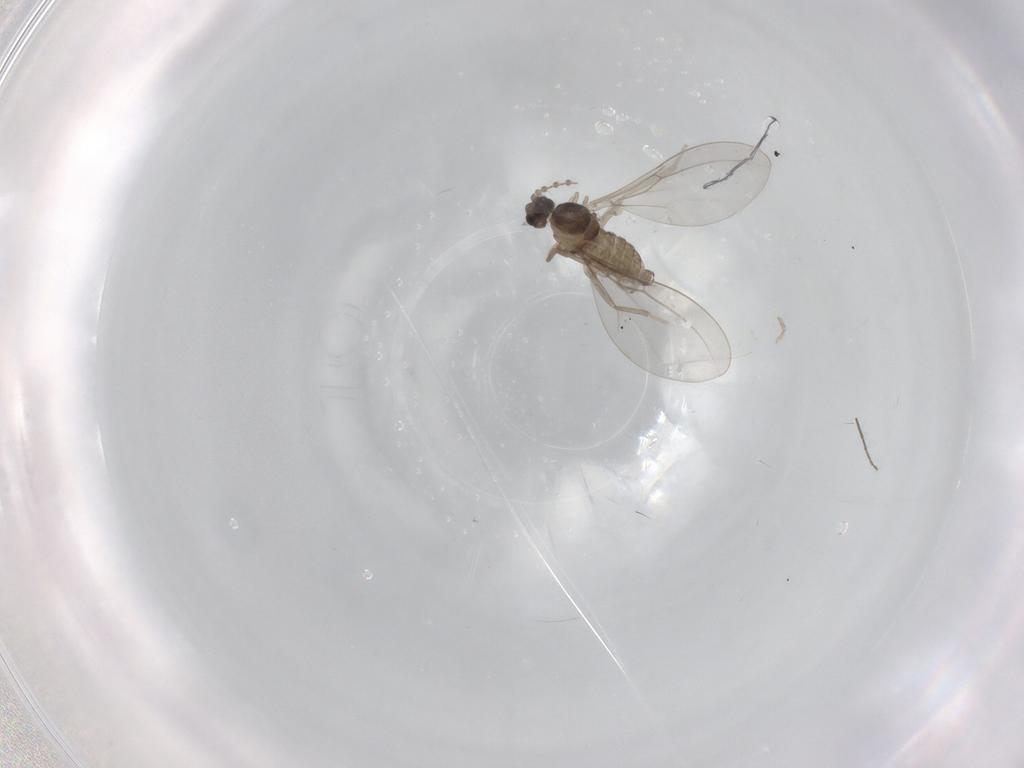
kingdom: Animalia
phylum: Arthropoda
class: Insecta
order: Diptera
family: Cecidomyiidae
